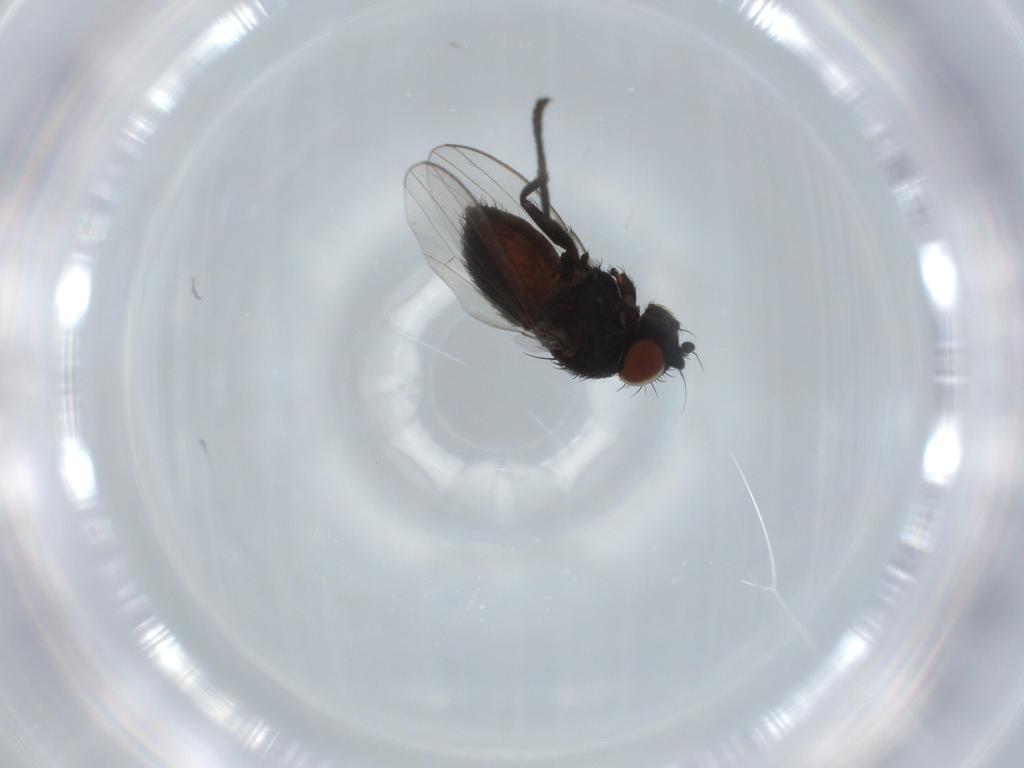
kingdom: Animalia
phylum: Arthropoda
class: Insecta
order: Diptera
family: Milichiidae
